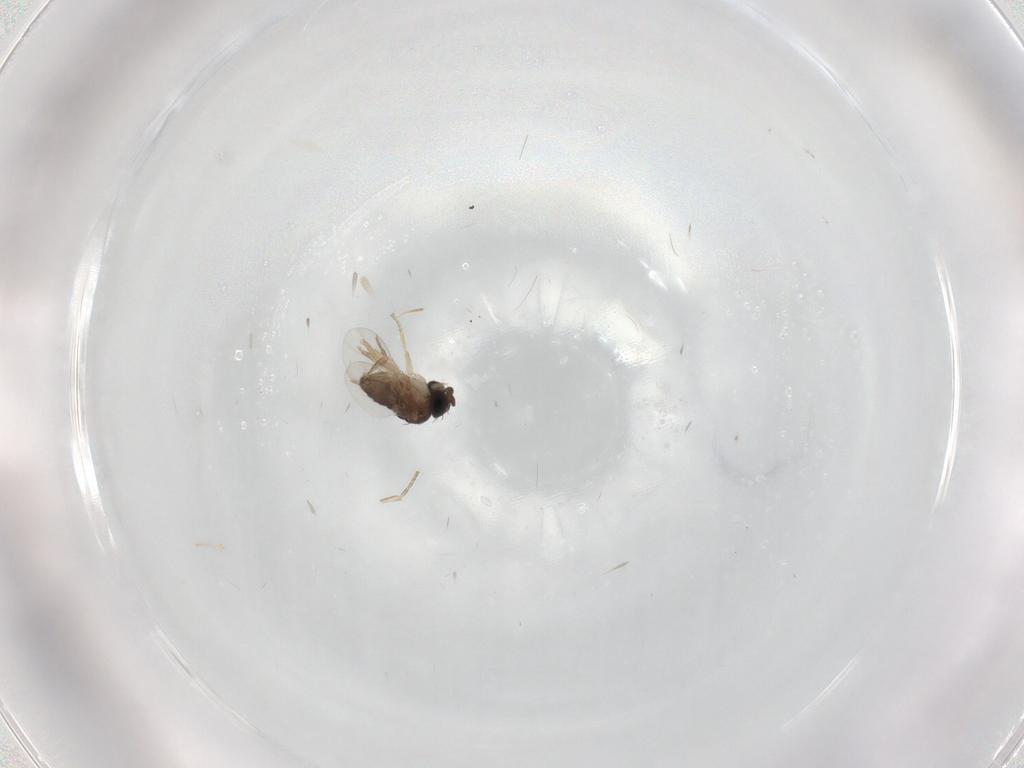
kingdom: Animalia
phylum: Arthropoda
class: Insecta
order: Diptera
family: Phoridae
